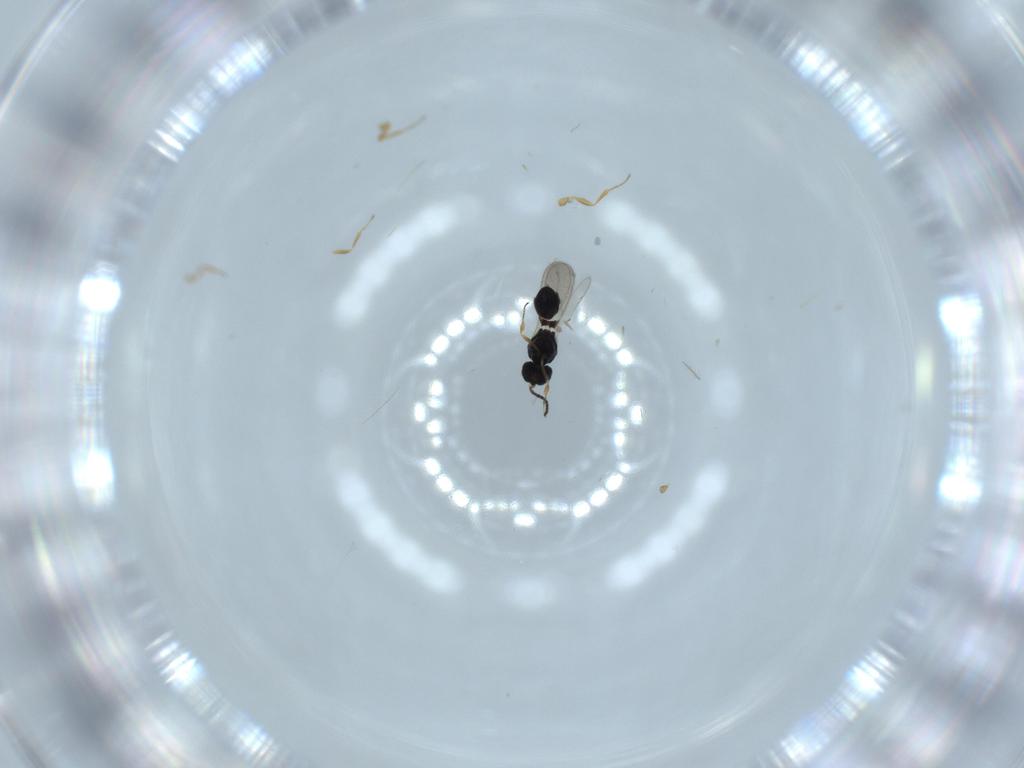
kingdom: Animalia
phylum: Arthropoda
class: Insecta
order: Hymenoptera
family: Scelionidae
